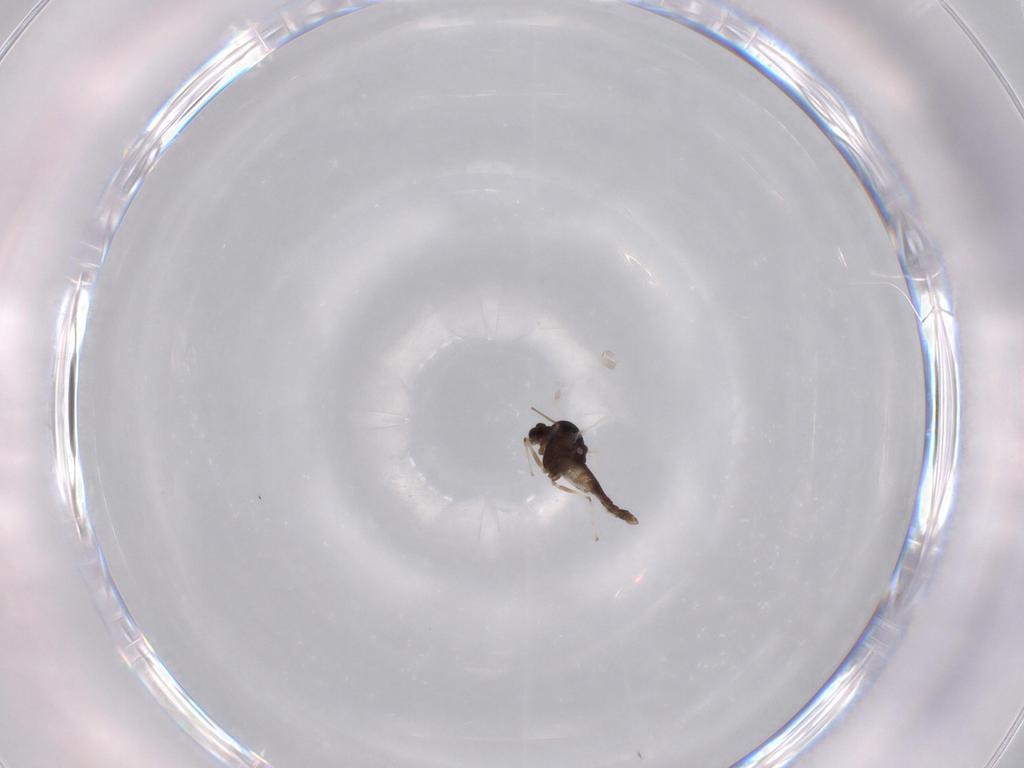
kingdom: Animalia
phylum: Arthropoda
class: Insecta
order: Diptera
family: Chironomidae
